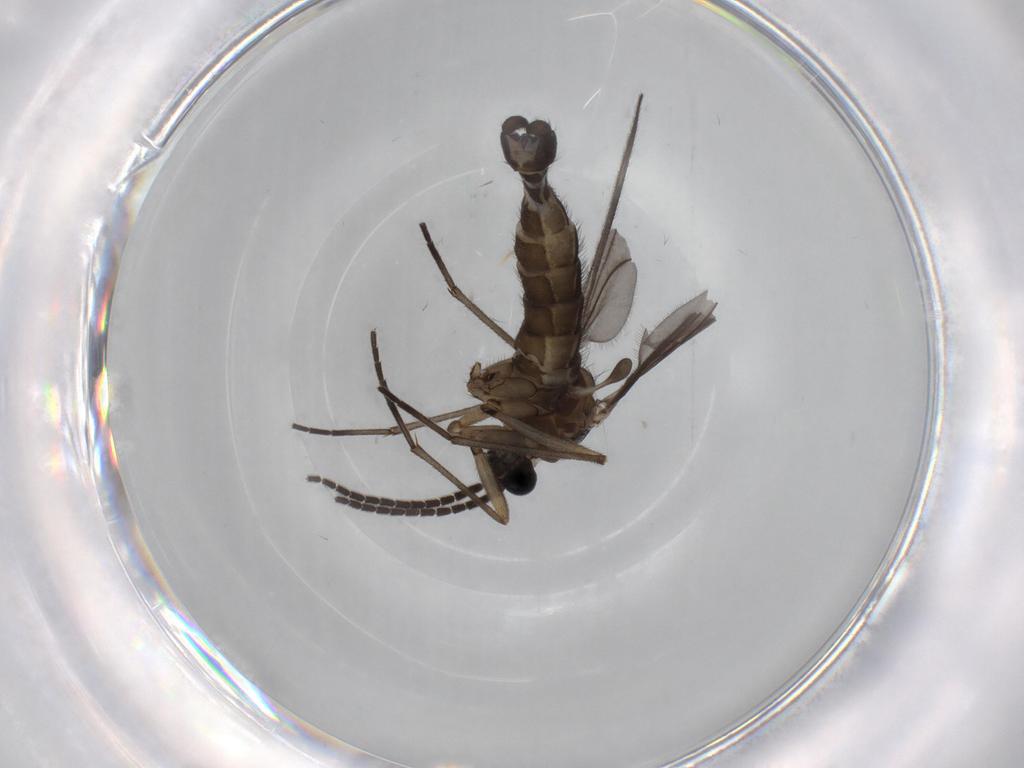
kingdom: Animalia
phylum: Arthropoda
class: Insecta
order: Diptera
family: Sciaridae
